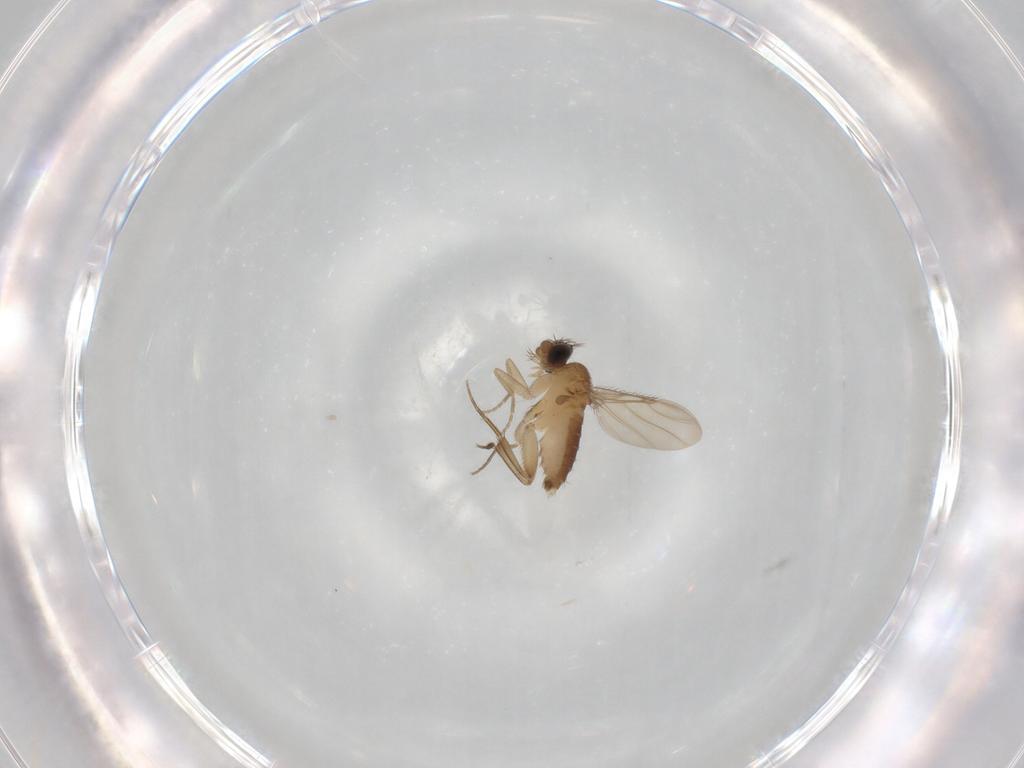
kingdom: Animalia
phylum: Arthropoda
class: Insecta
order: Diptera
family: Phoridae
